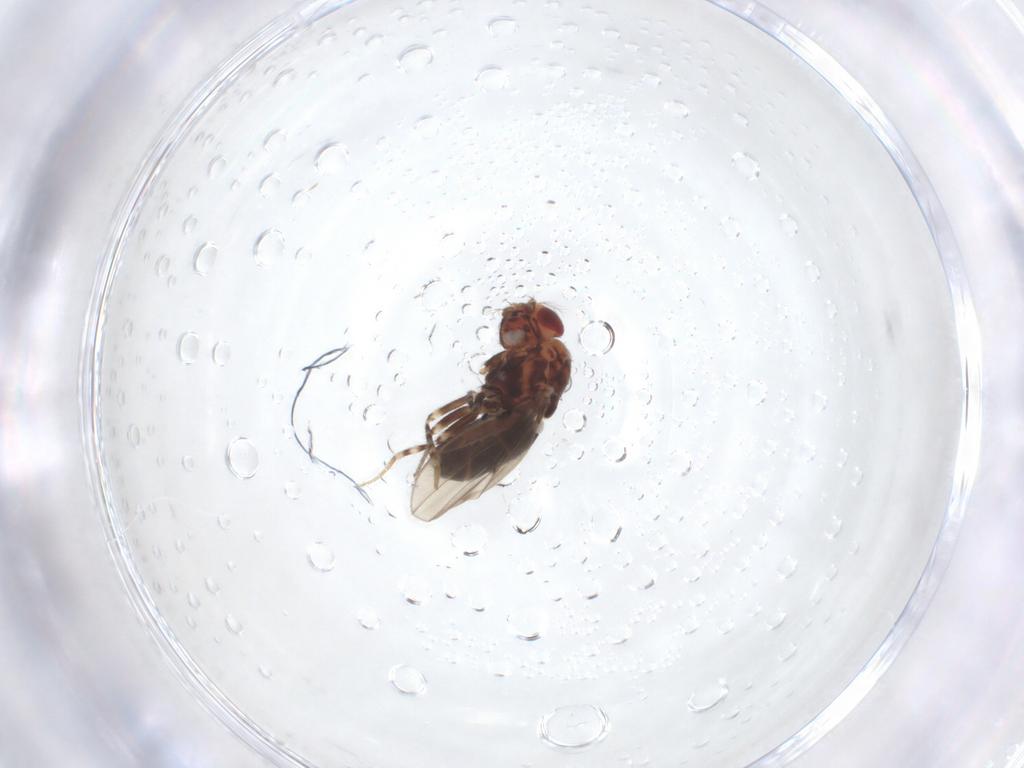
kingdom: Animalia
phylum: Arthropoda
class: Insecta
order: Diptera
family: Drosophilidae
